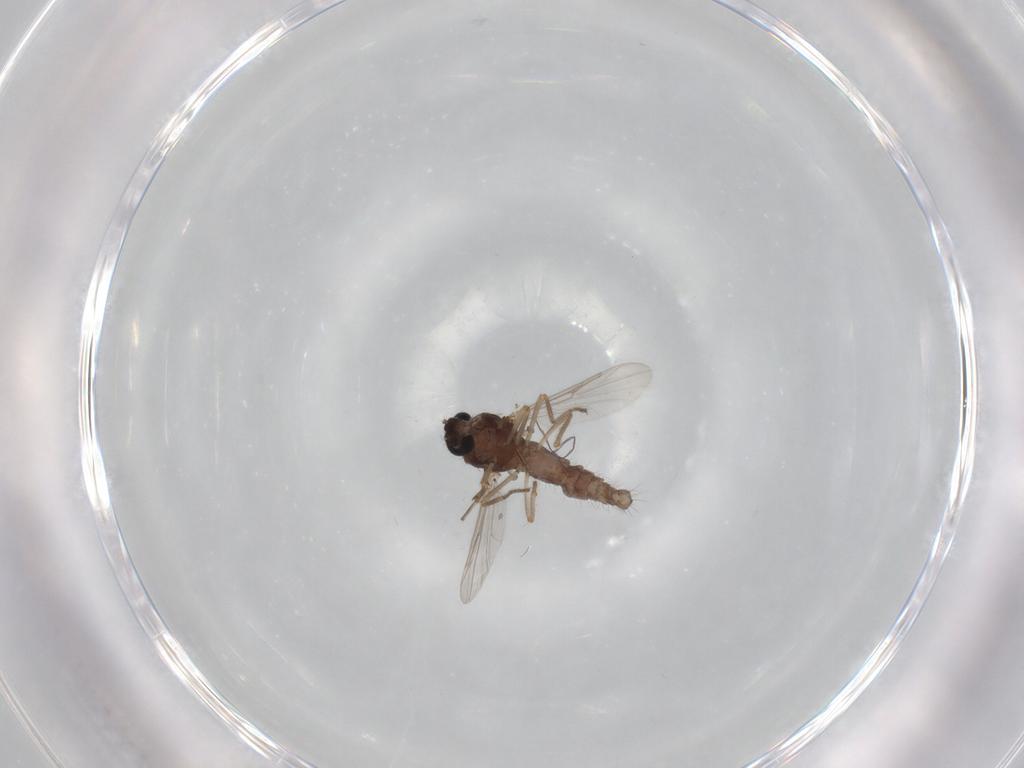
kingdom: Animalia
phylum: Arthropoda
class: Insecta
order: Diptera
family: Ceratopogonidae
